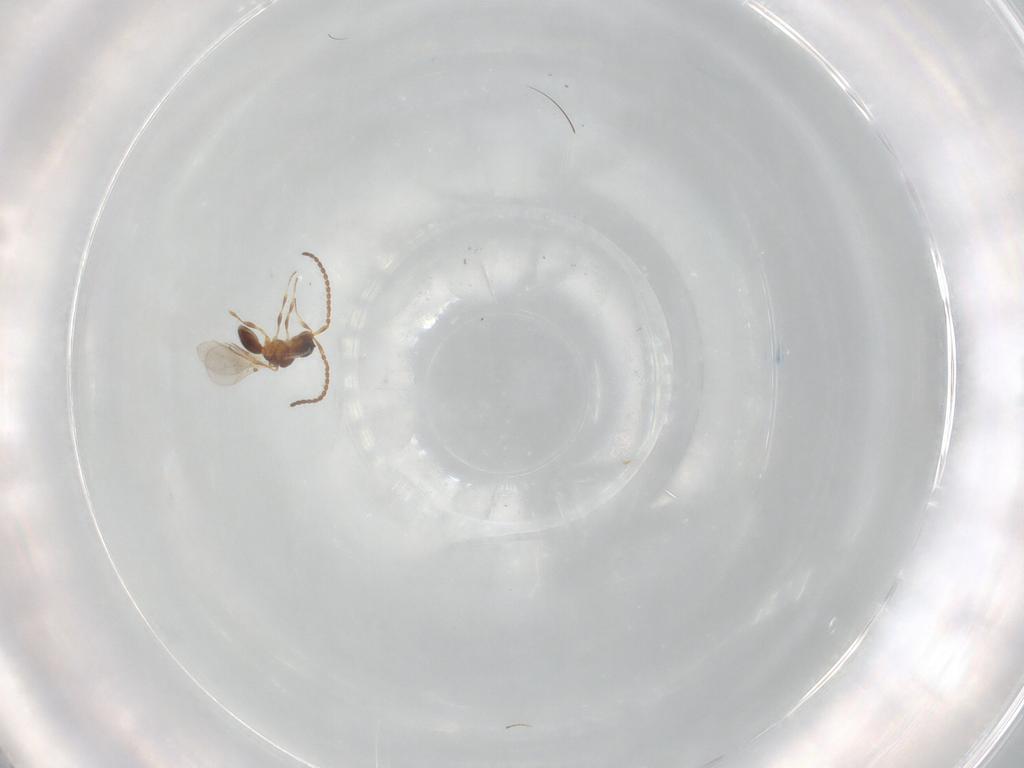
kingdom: Animalia
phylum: Arthropoda
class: Insecta
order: Hymenoptera
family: Diapriidae
